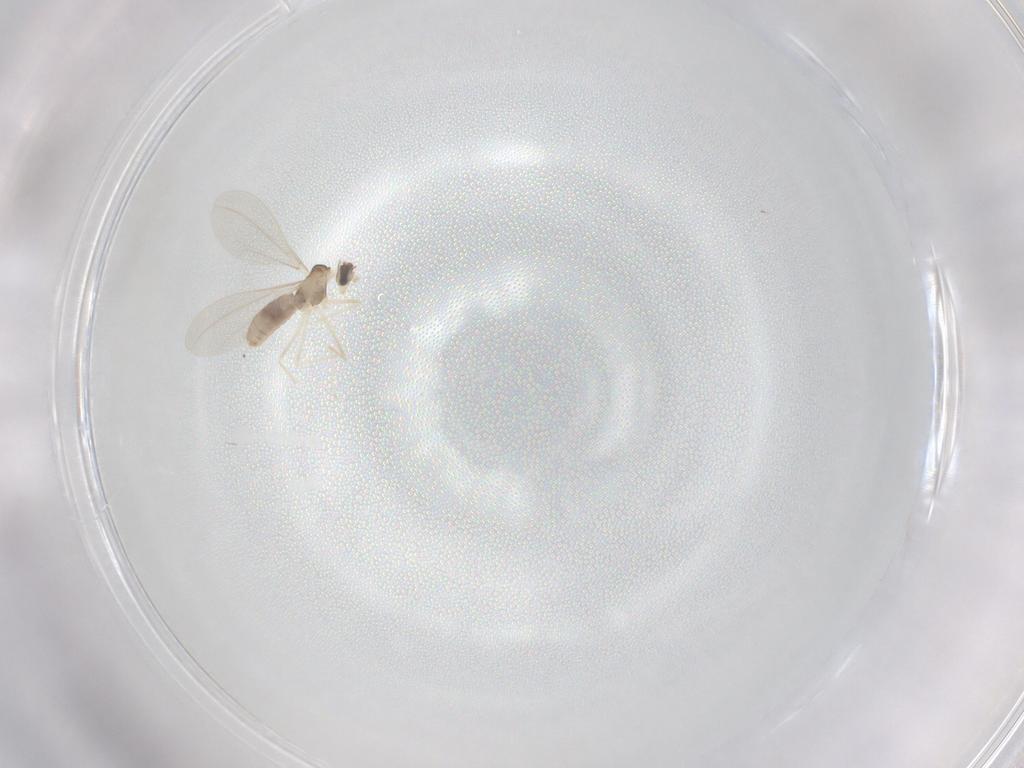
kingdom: Animalia
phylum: Arthropoda
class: Insecta
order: Diptera
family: Cecidomyiidae
